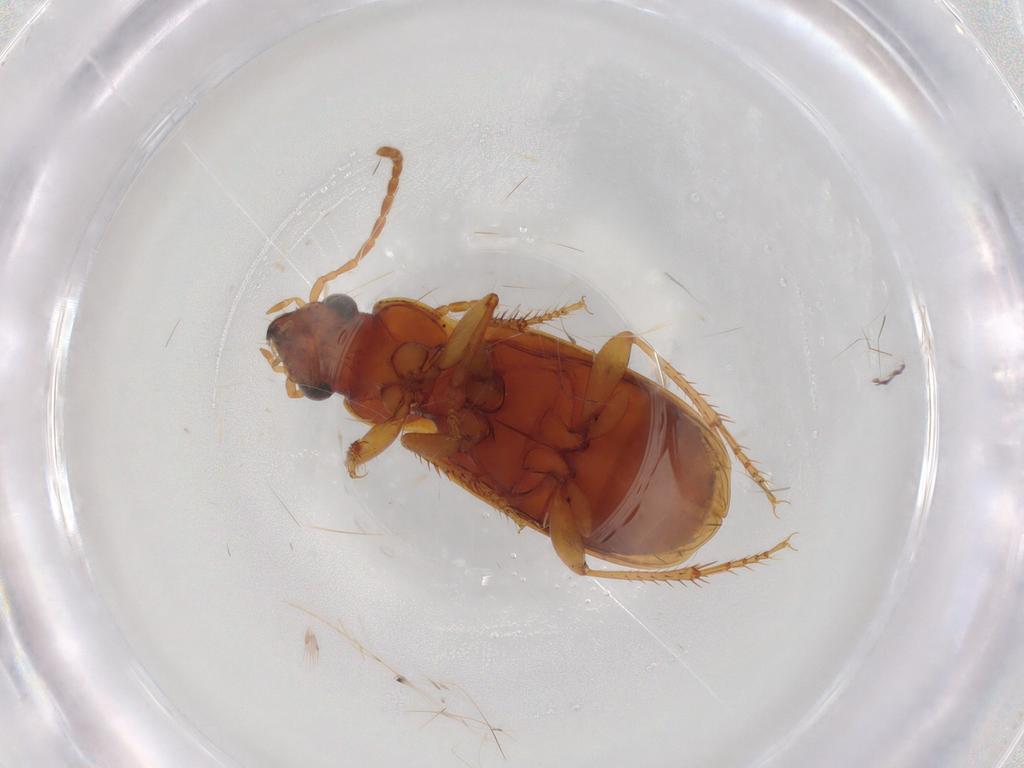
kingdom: Animalia
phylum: Arthropoda
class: Insecta
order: Coleoptera
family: Carabidae
